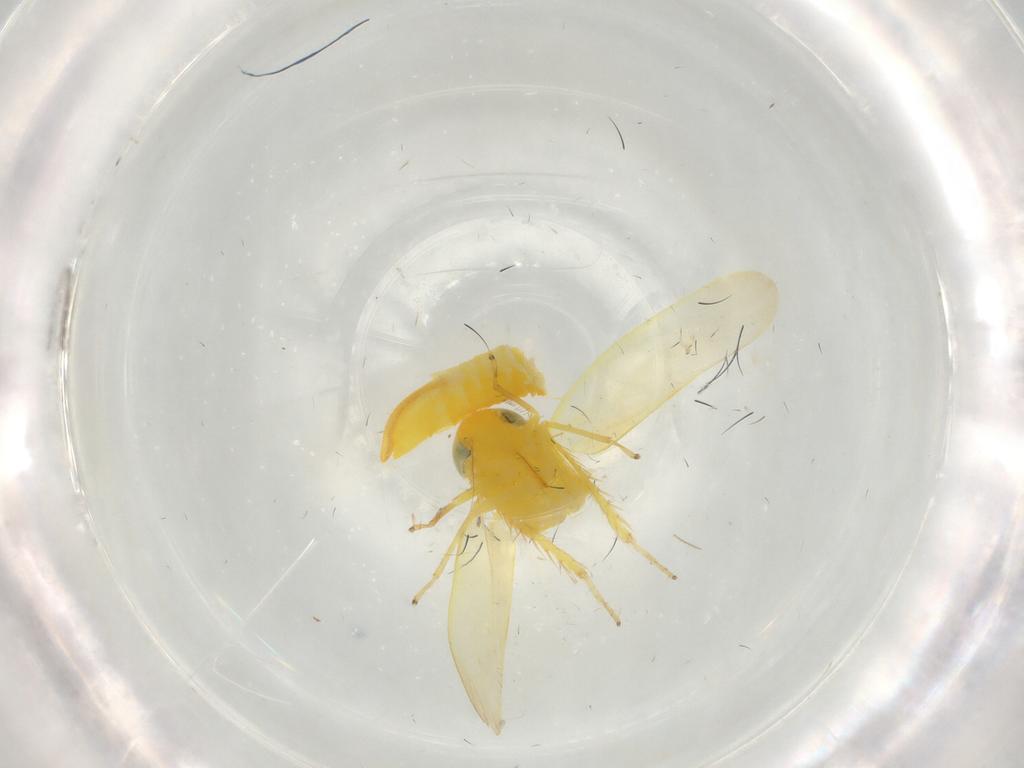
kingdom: Animalia
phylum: Arthropoda
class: Insecta
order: Hemiptera
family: Cicadellidae
